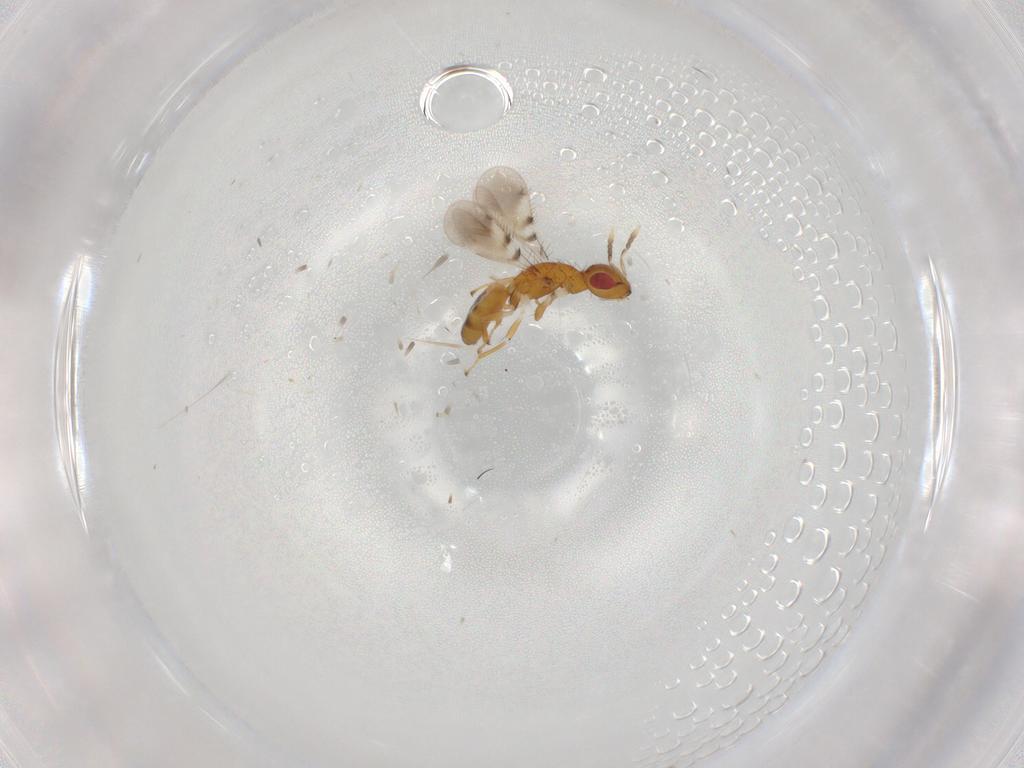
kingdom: Animalia
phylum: Arthropoda
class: Insecta
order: Hymenoptera
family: Eulophidae
